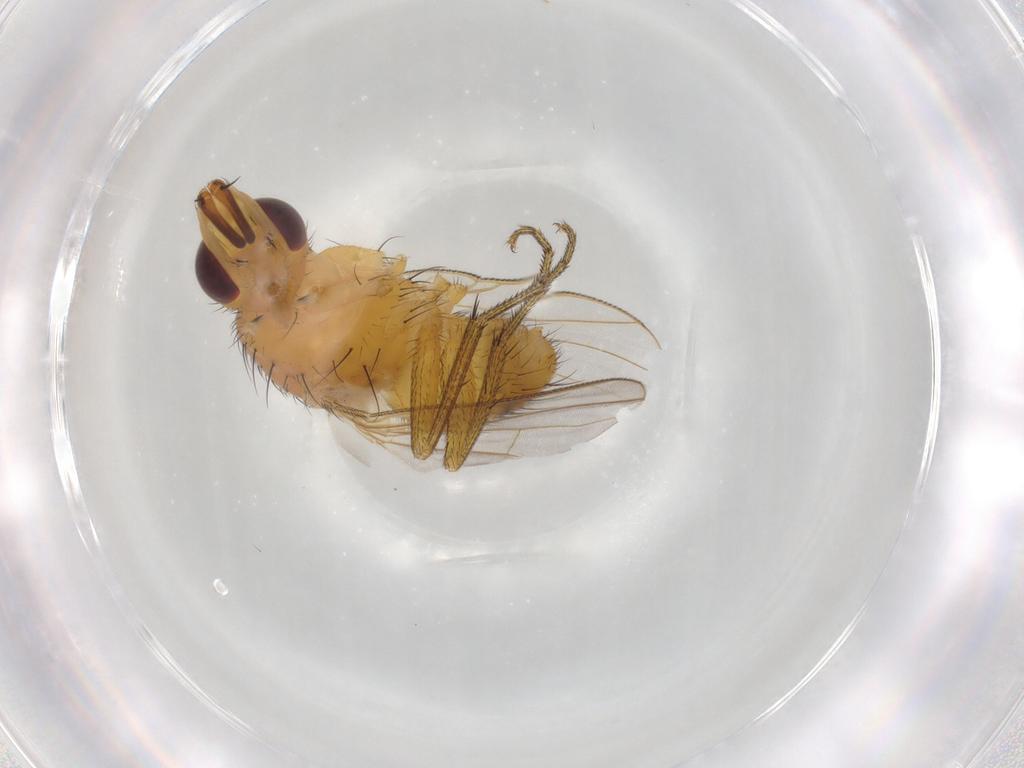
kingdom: Animalia
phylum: Arthropoda
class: Insecta
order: Diptera
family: Muscidae
